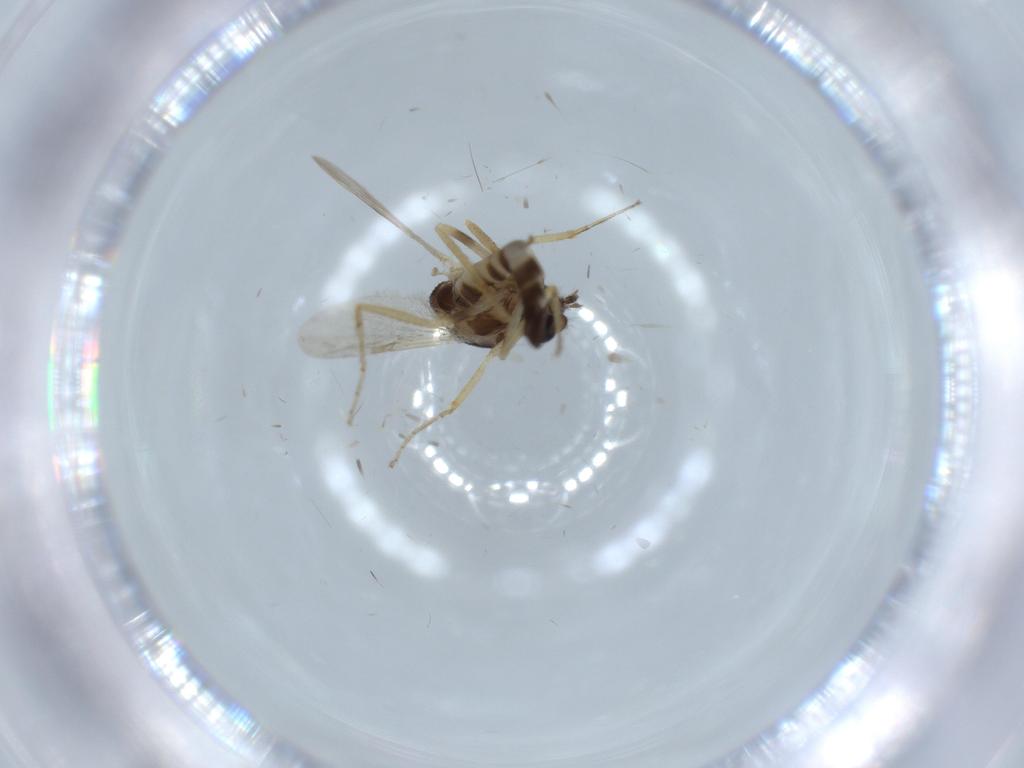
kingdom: Animalia
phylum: Arthropoda
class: Insecta
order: Diptera
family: Ceratopogonidae
